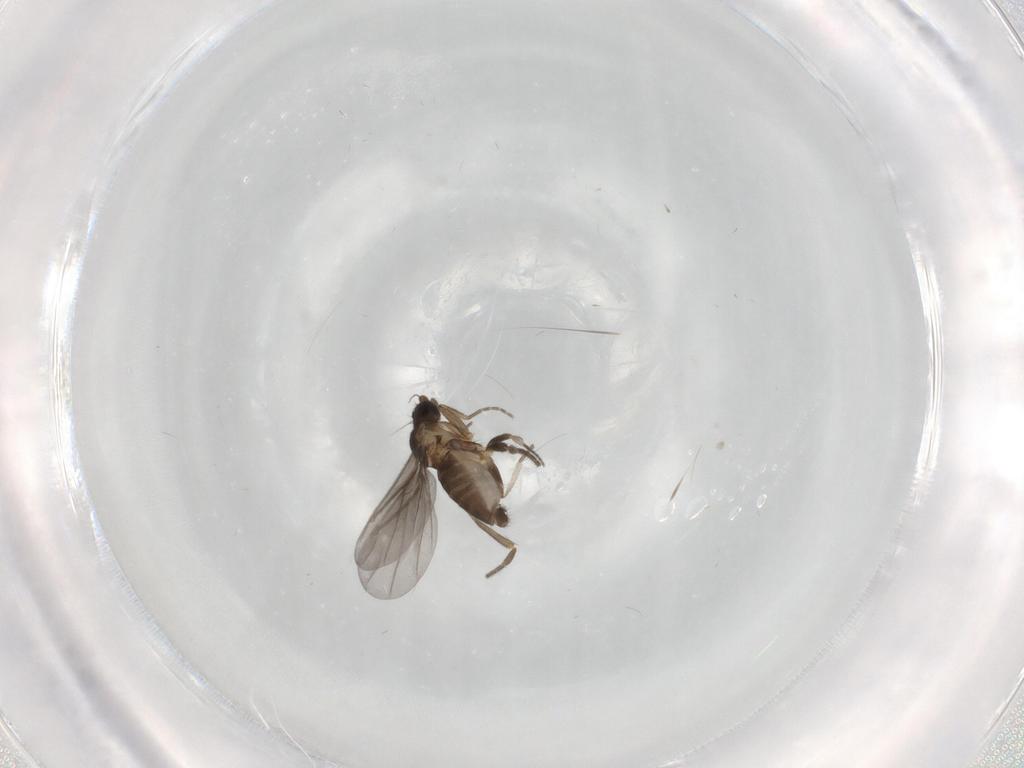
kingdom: Animalia
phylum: Arthropoda
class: Insecta
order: Diptera
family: Phoridae
